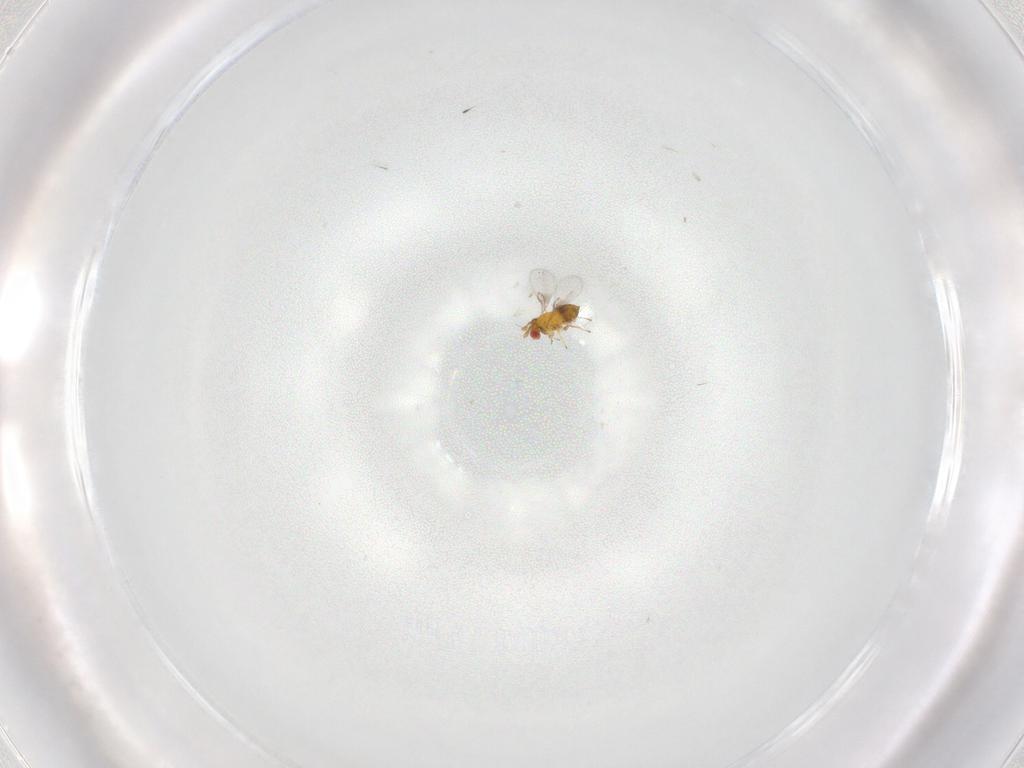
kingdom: Animalia
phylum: Arthropoda
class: Insecta
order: Hymenoptera
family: Trichogrammatidae
